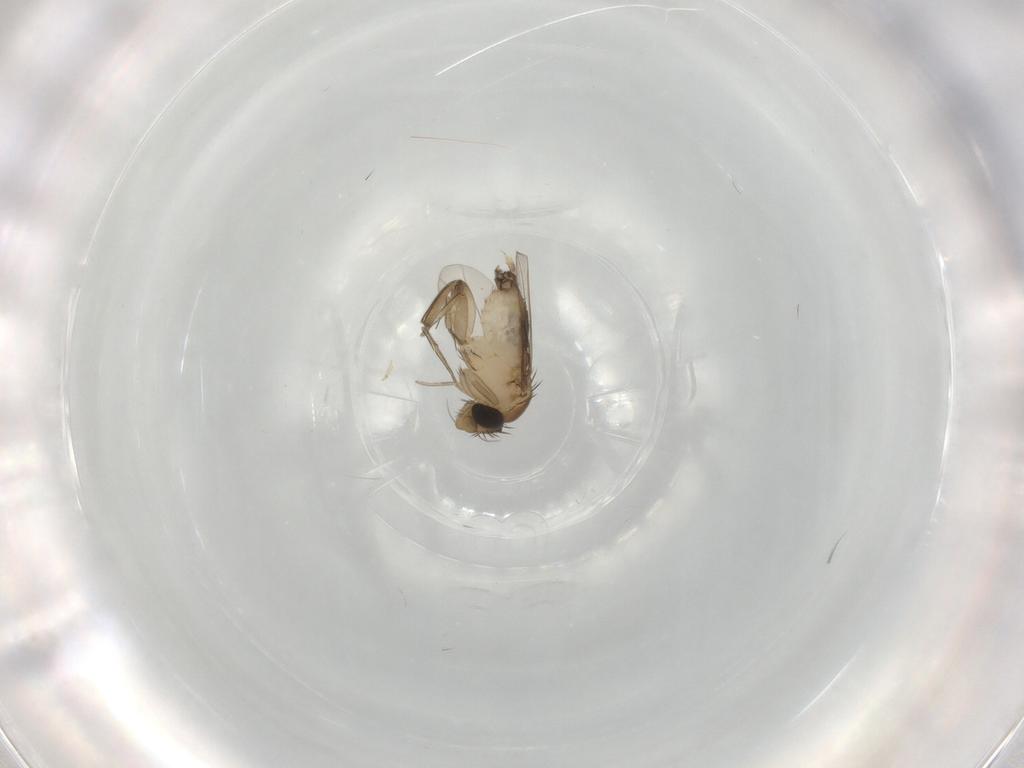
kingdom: Animalia
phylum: Arthropoda
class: Insecta
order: Diptera
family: Phoridae
